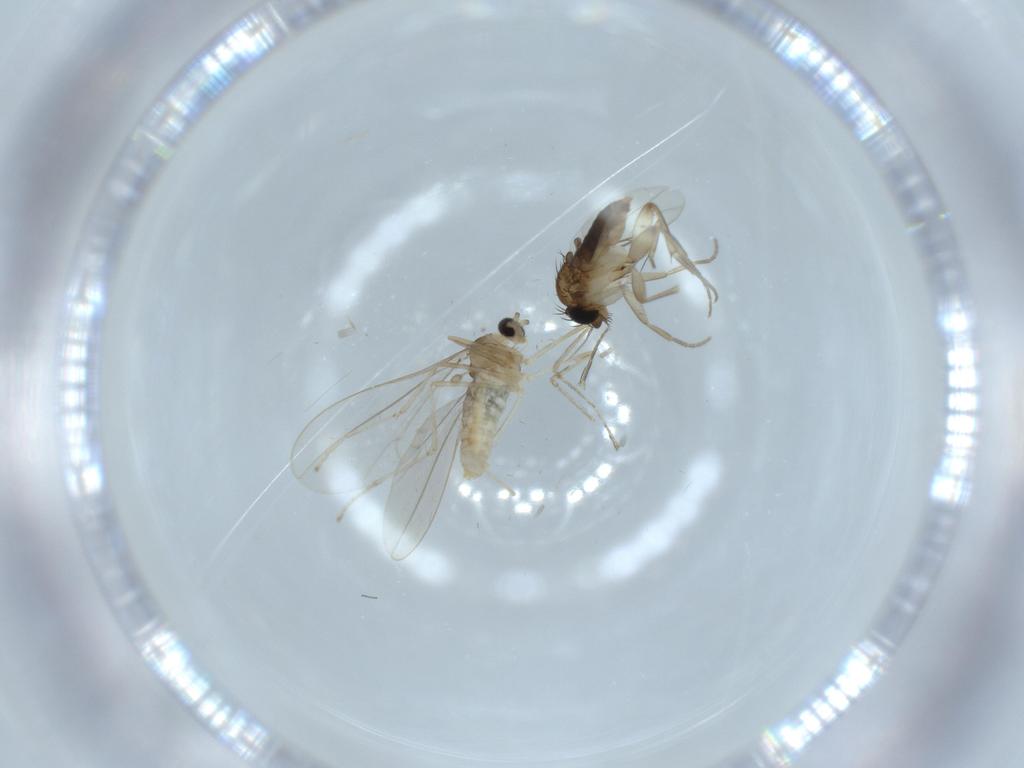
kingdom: Animalia
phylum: Arthropoda
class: Insecta
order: Diptera
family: Cecidomyiidae
